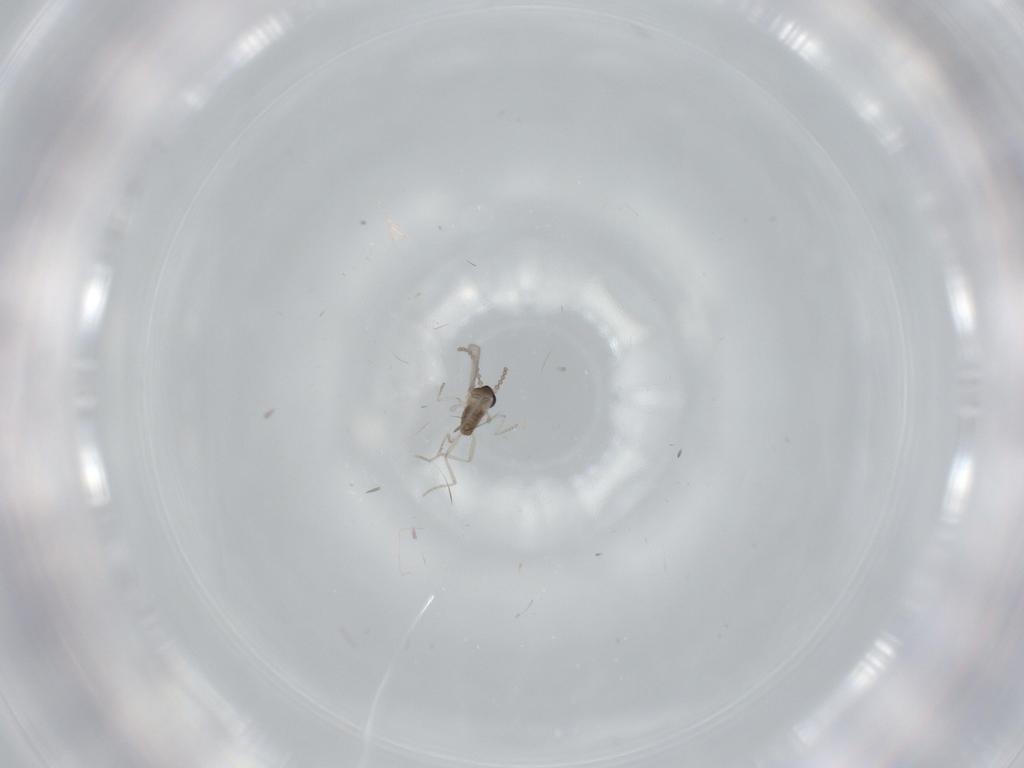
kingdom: Animalia
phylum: Arthropoda
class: Insecta
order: Diptera
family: Cecidomyiidae
